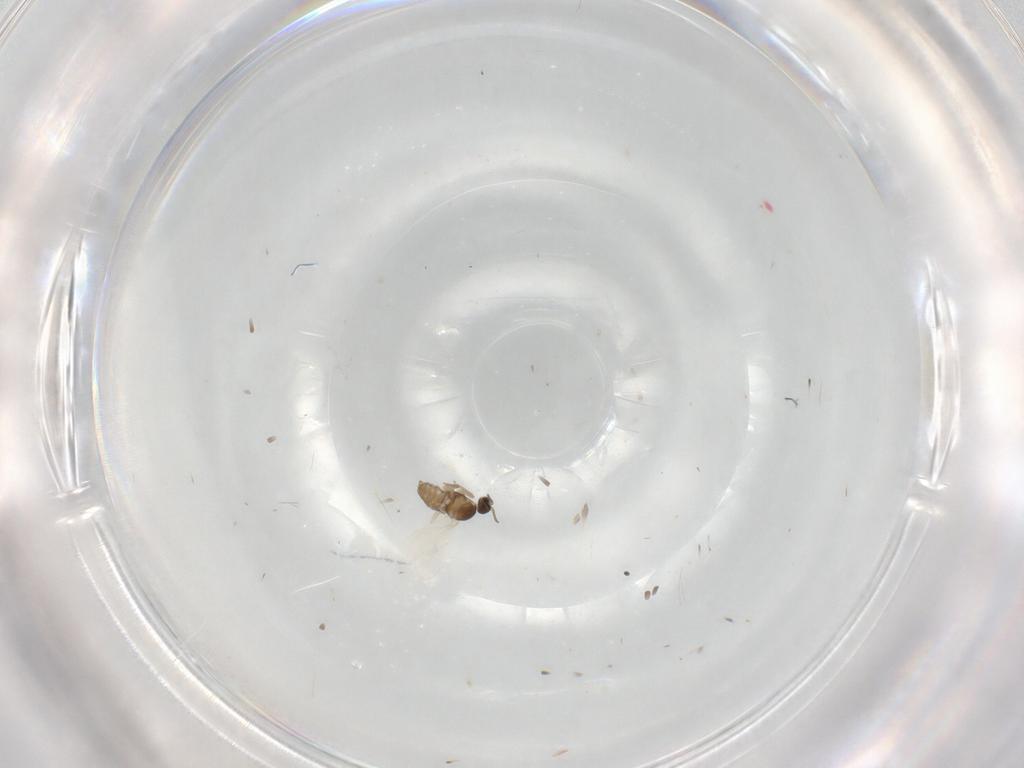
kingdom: Animalia
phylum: Arthropoda
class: Insecta
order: Diptera
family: Cecidomyiidae
